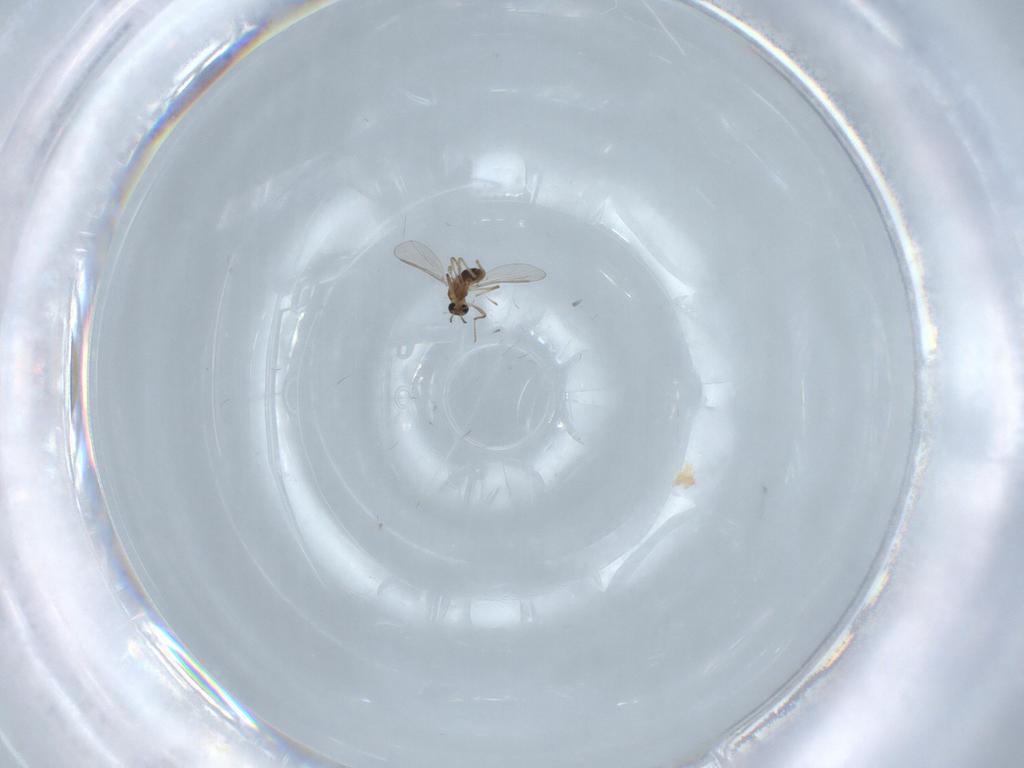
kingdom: Animalia
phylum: Arthropoda
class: Insecta
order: Diptera
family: Chironomidae
